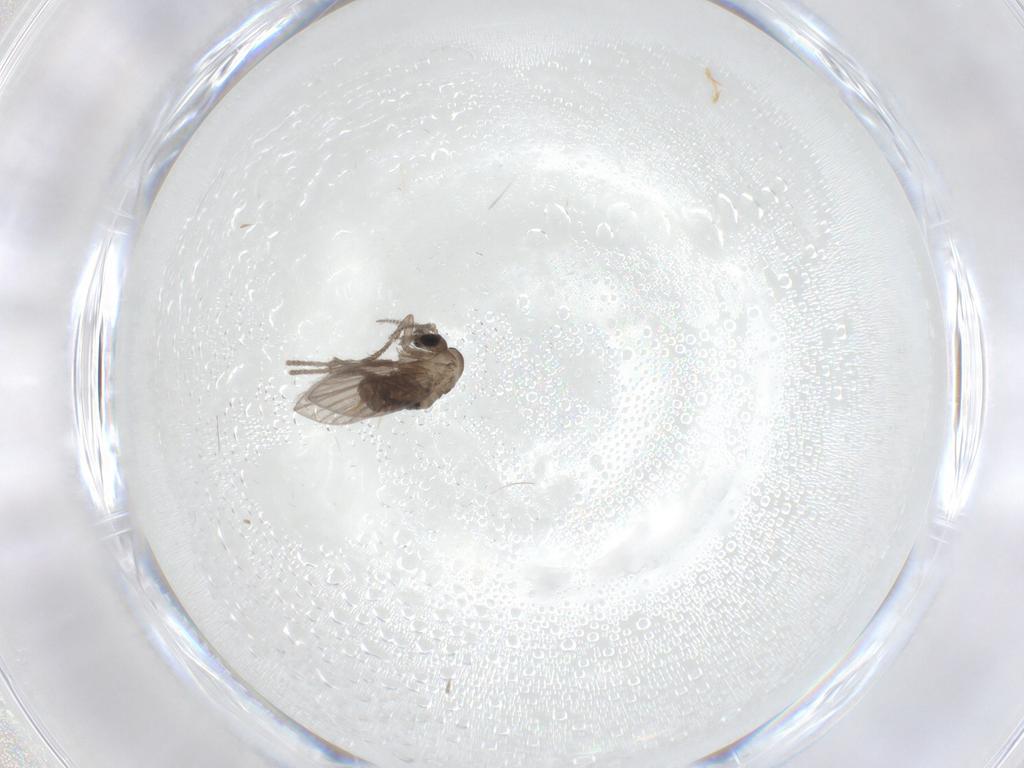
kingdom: Animalia
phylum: Arthropoda
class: Insecta
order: Diptera
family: Psychodidae
